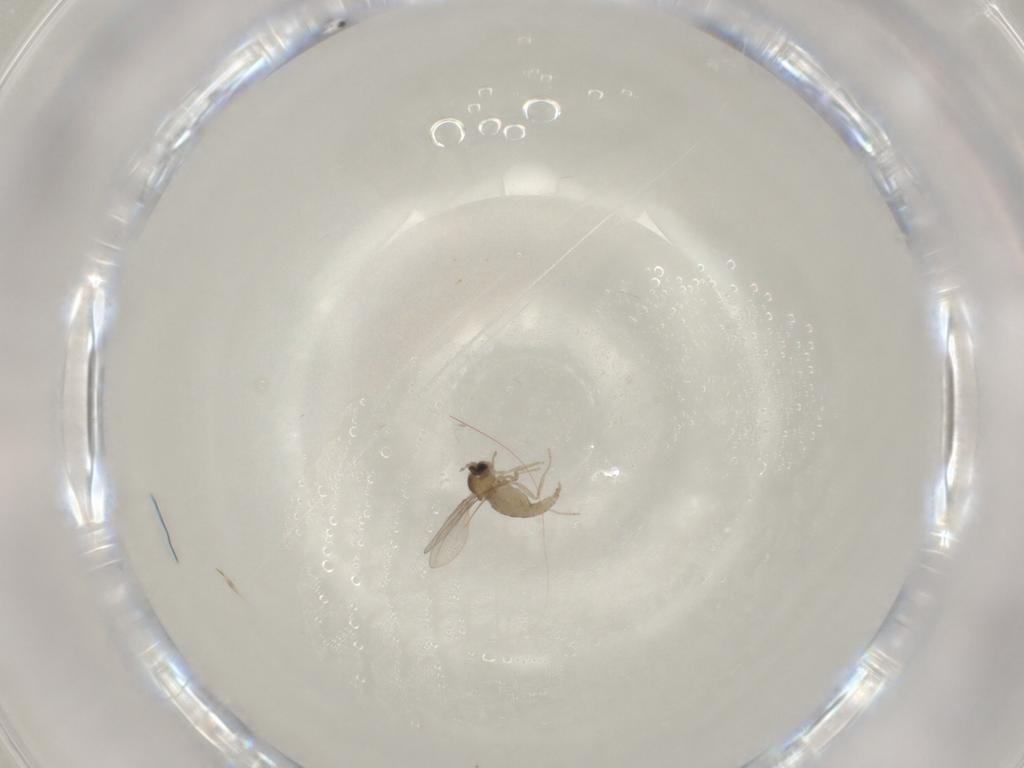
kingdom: Animalia
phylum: Arthropoda
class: Insecta
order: Diptera
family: Cecidomyiidae
